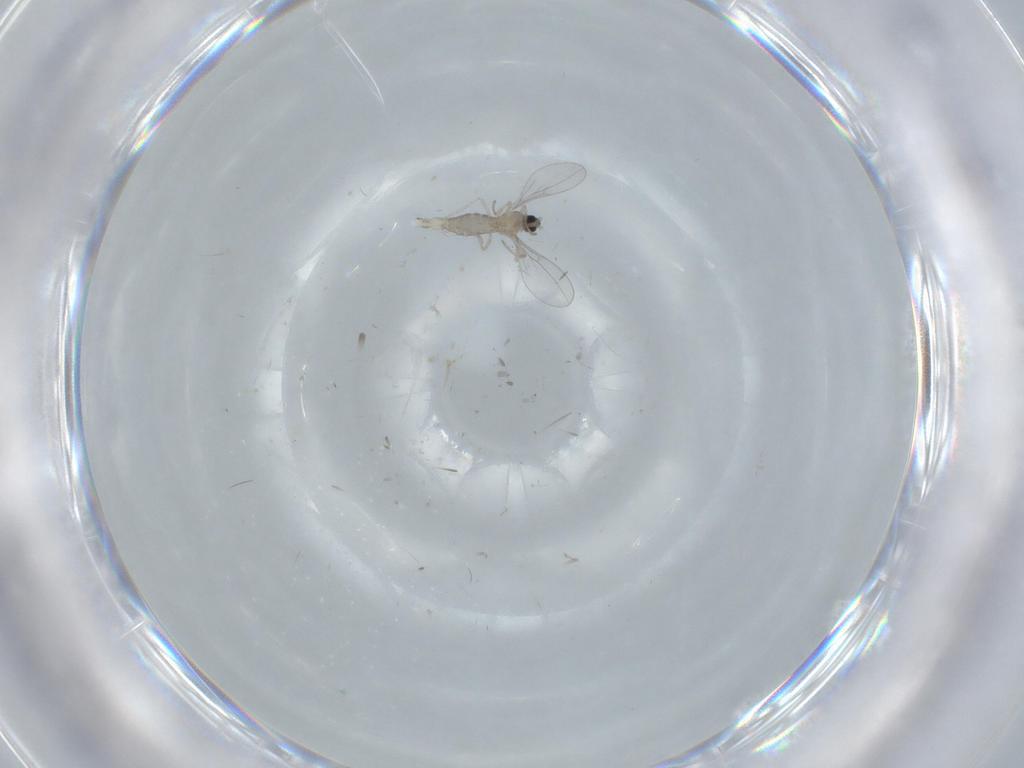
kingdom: Animalia
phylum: Arthropoda
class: Insecta
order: Diptera
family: Cecidomyiidae
